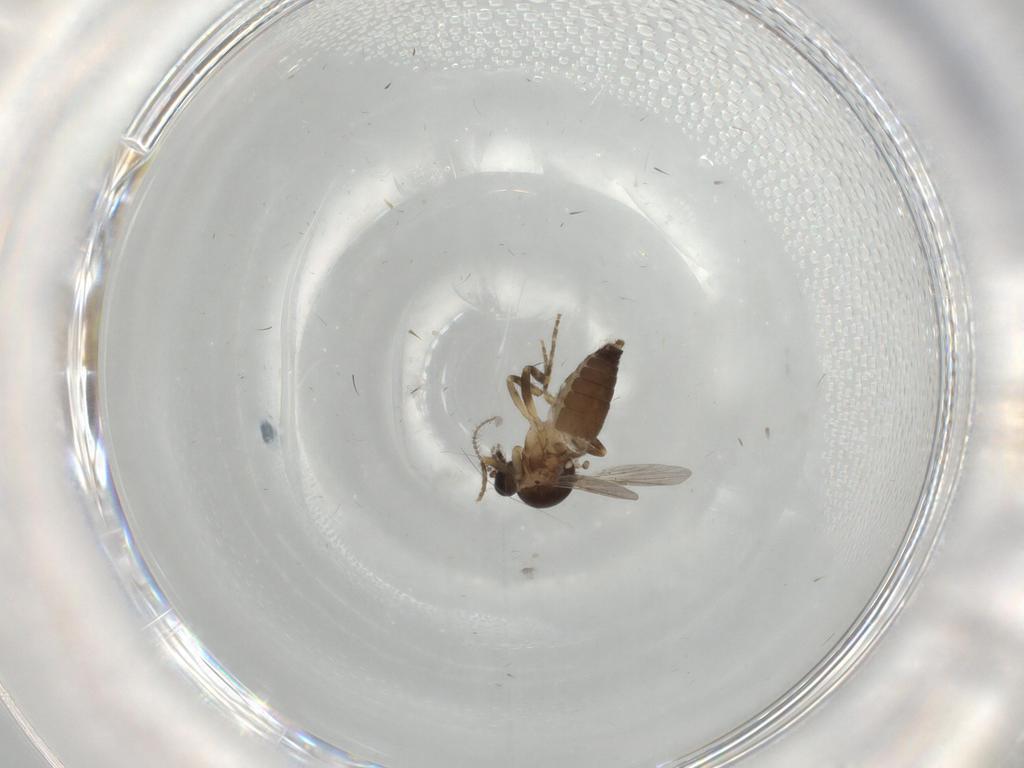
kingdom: Animalia
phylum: Arthropoda
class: Insecta
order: Diptera
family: Ceratopogonidae
